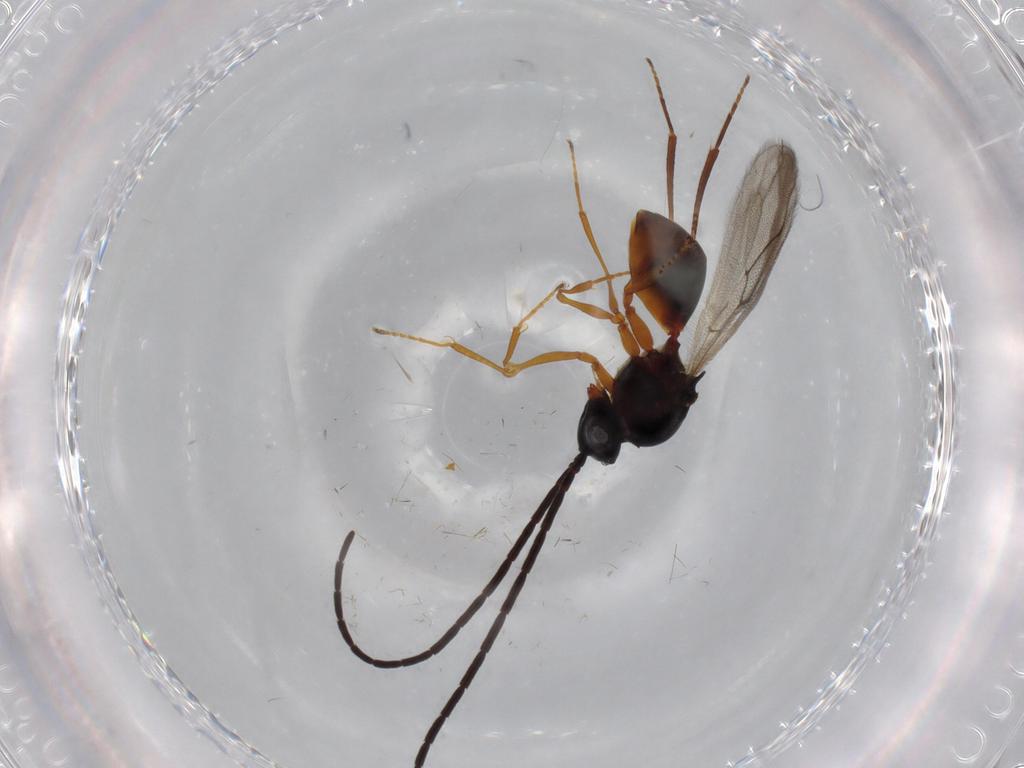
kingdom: Animalia
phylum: Arthropoda
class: Insecta
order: Hymenoptera
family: Figitidae
